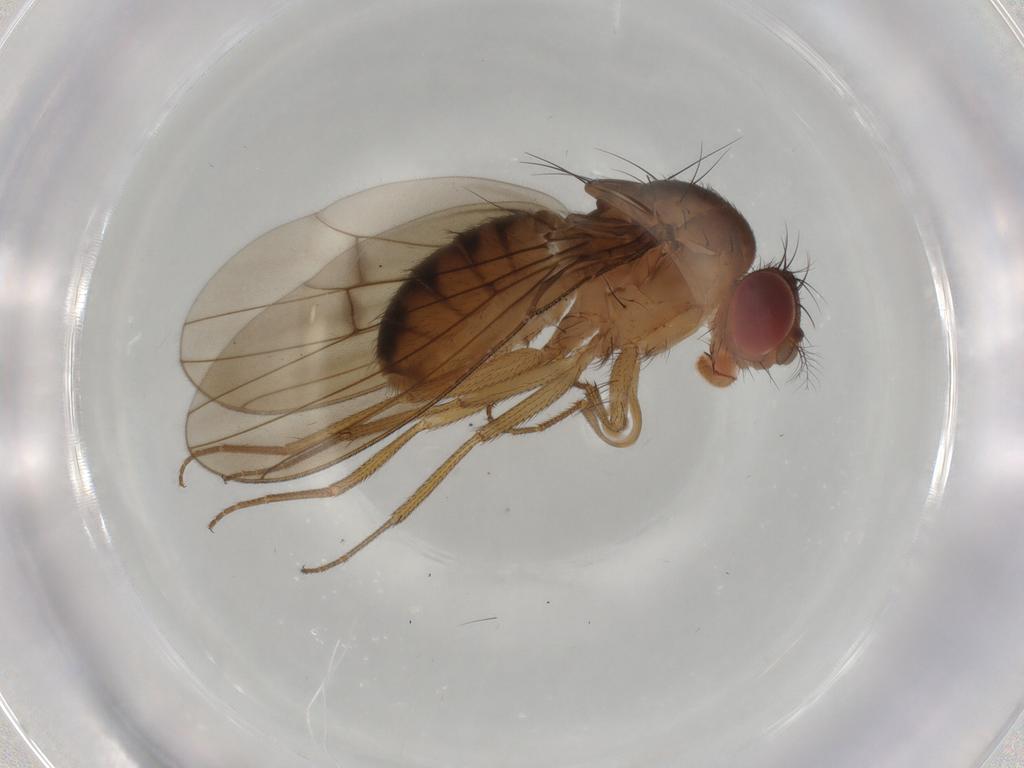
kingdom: Animalia
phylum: Arthropoda
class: Insecta
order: Diptera
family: Drosophilidae
